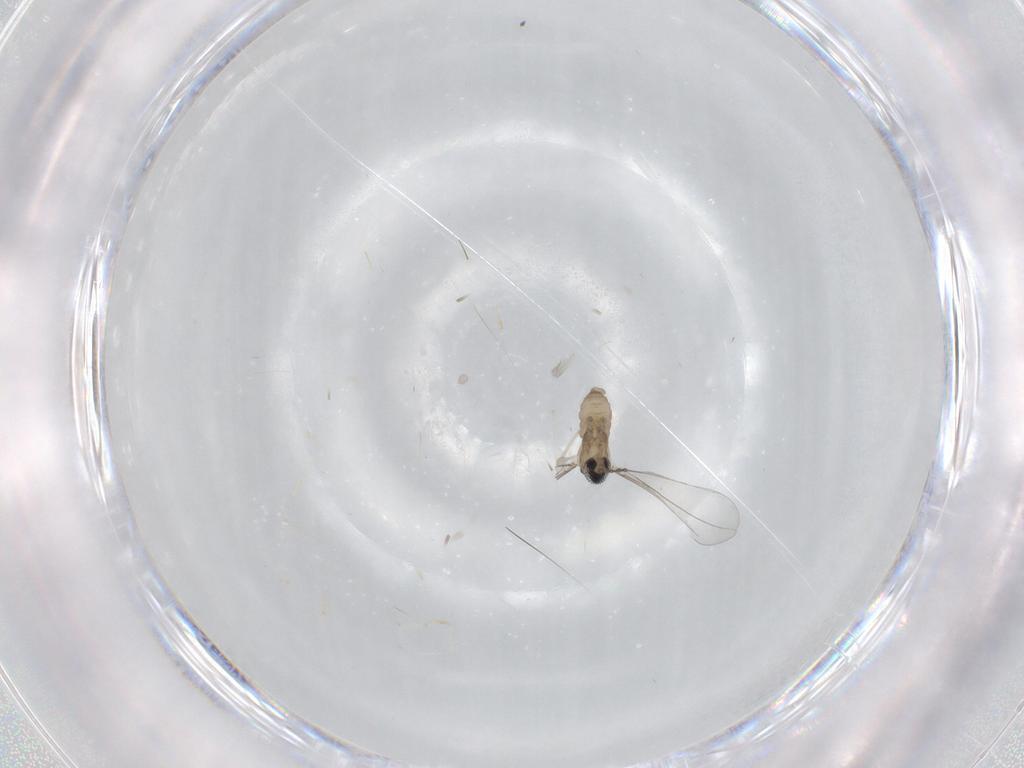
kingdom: Animalia
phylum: Arthropoda
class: Insecta
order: Diptera
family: Cecidomyiidae
